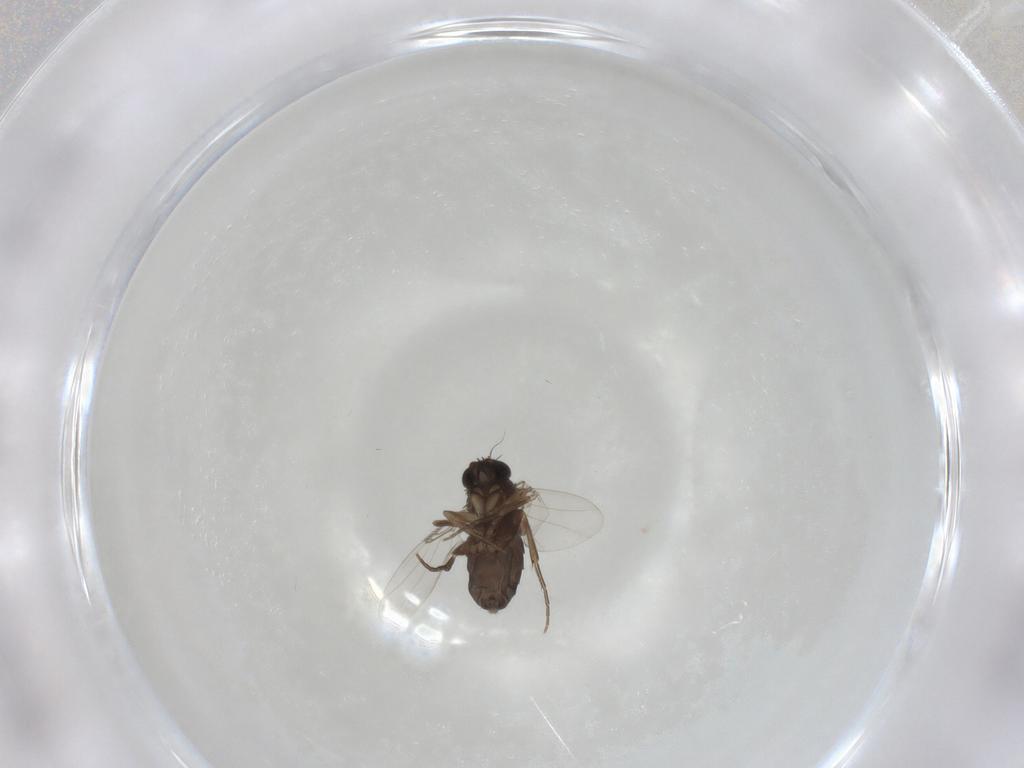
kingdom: Animalia
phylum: Arthropoda
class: Insecta
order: Diptera
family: Phoridae
